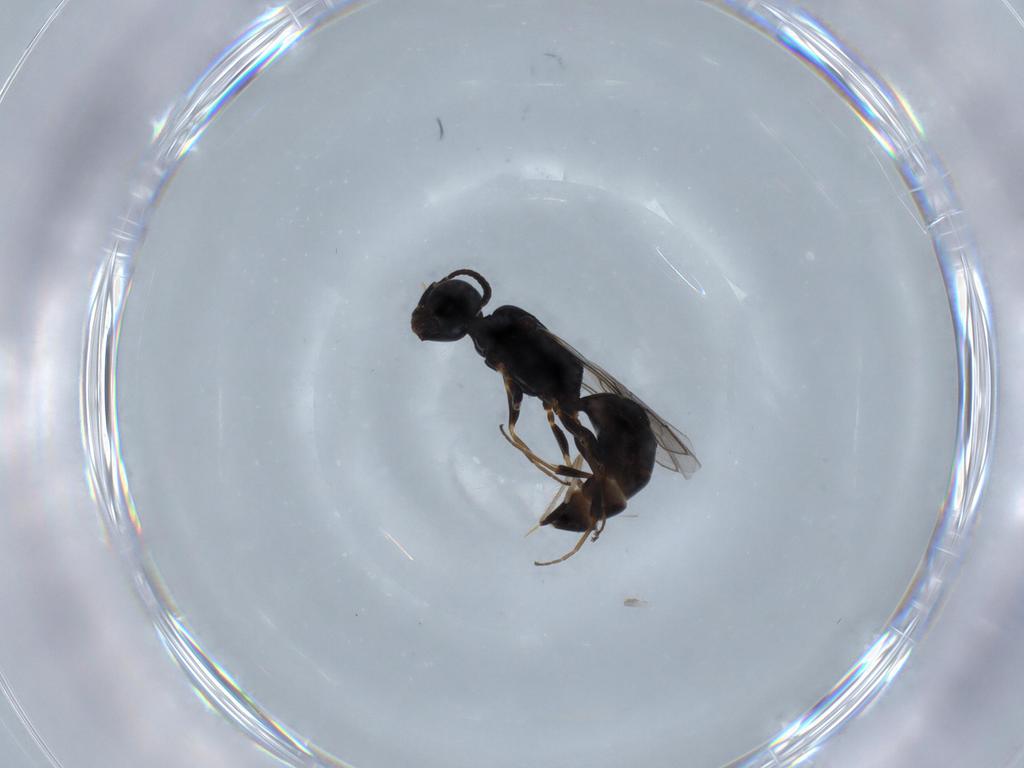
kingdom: Animalia
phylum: Arthropoda
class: Insecta
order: Hymenoptera
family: Pemphredonidae
